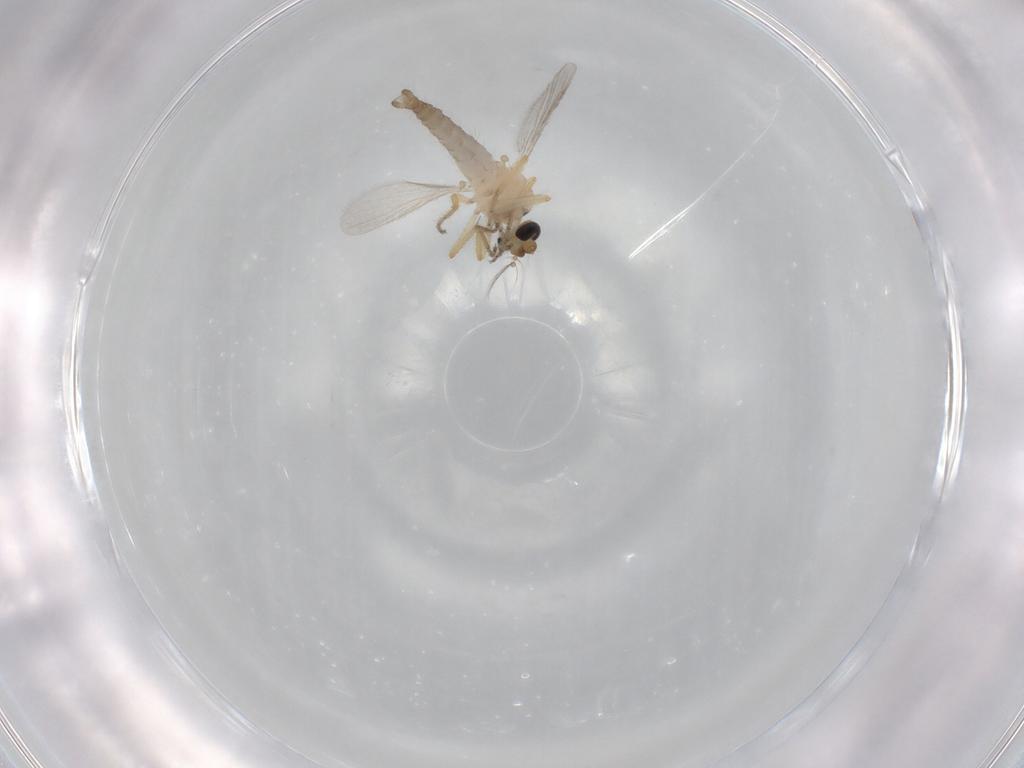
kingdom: Animalia
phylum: Arthropoda
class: Insecta
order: Diptera
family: Ceratopogonidae
